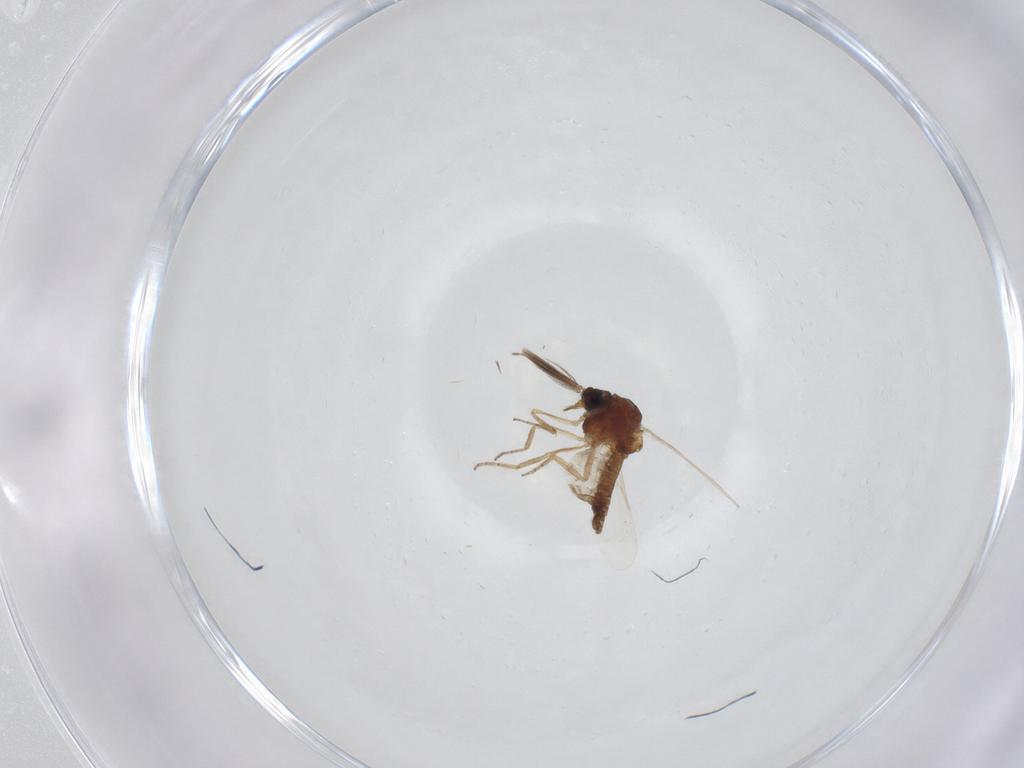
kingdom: Animalia
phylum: Arthropoda
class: Insecta
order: Diptera
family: Ceratopogonidae
